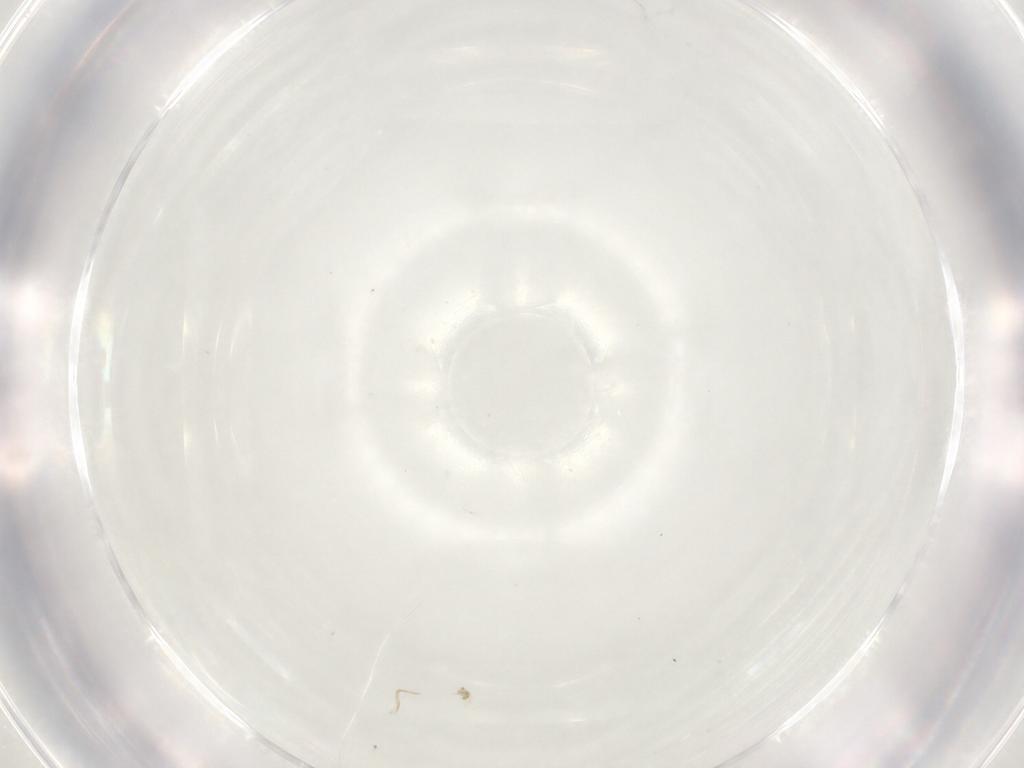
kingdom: Animalia
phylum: Arthropoda
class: Insecta
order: Diptera
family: Cecidomyiidae
